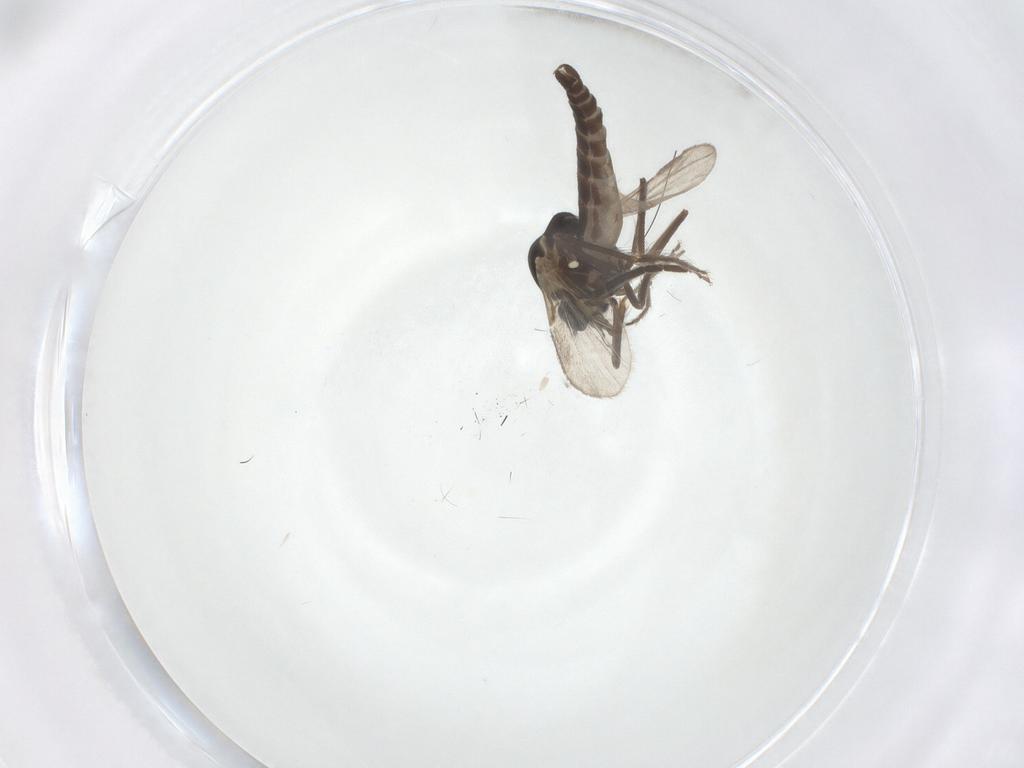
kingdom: Animalia
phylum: Arthropoda
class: Insecta
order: Diptera
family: Ceratopogonidae
